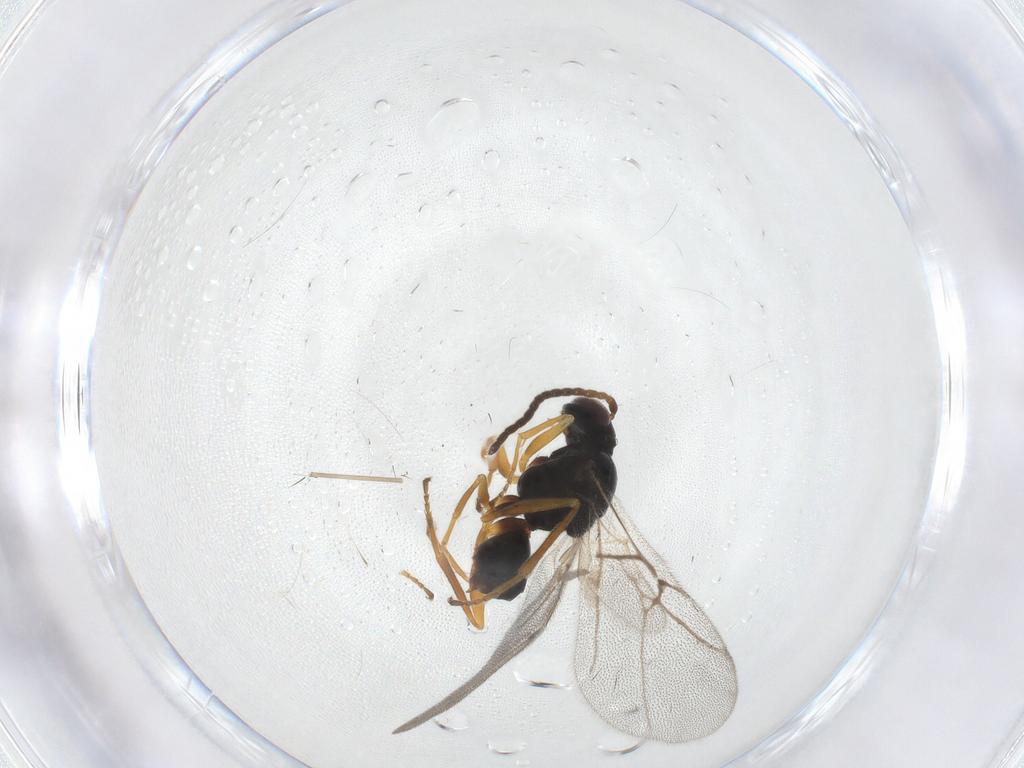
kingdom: Animalia
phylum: Arthropoda
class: Insecta
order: Hymenoptera
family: Cynipidae
